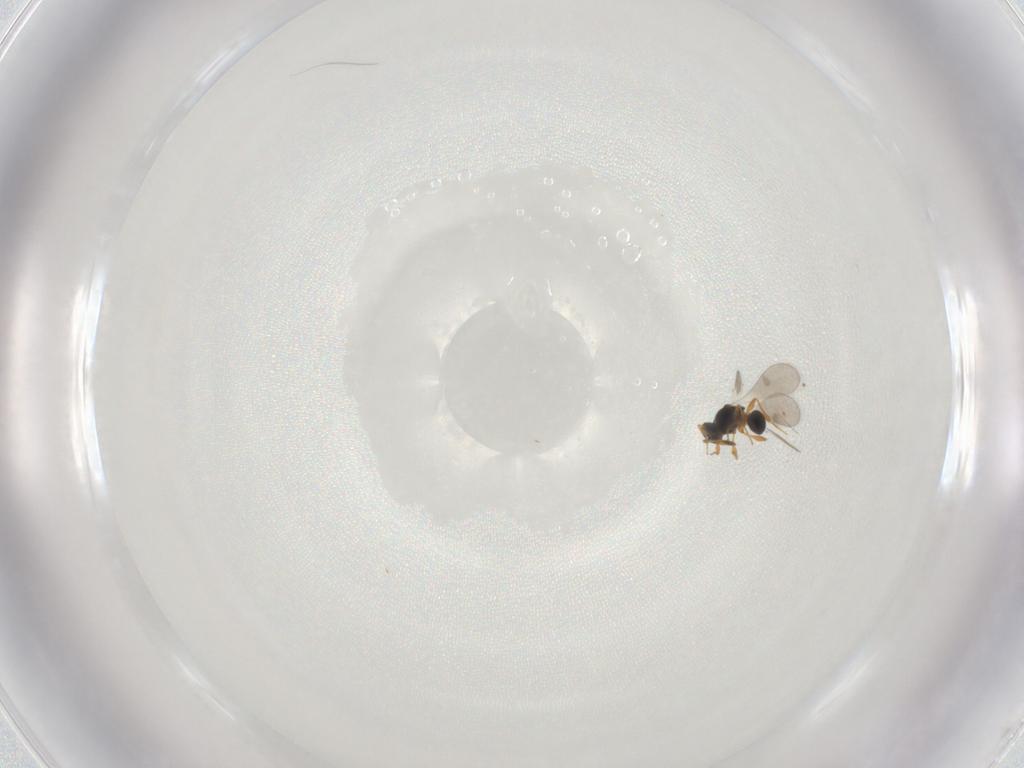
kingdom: Animalia
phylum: Arthropoda
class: Insecta
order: Hymenoptera
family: Platygastridae
